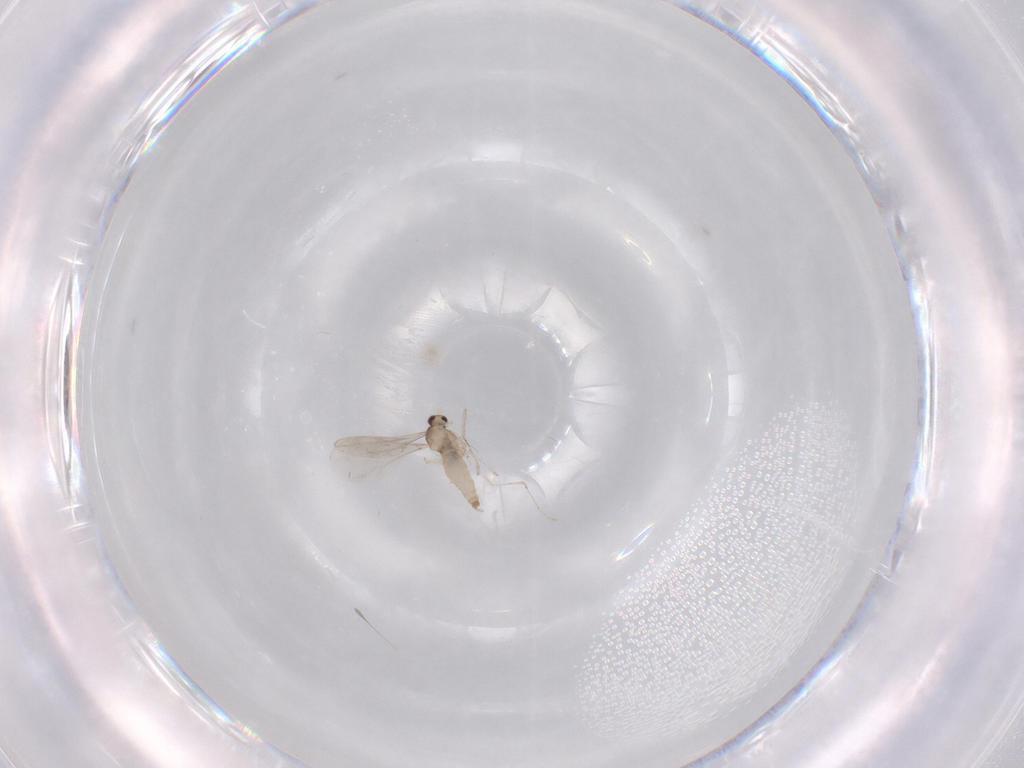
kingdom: Animalia
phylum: Arthropoda
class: Insecta
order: Diptera
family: Cecidomyiidae
